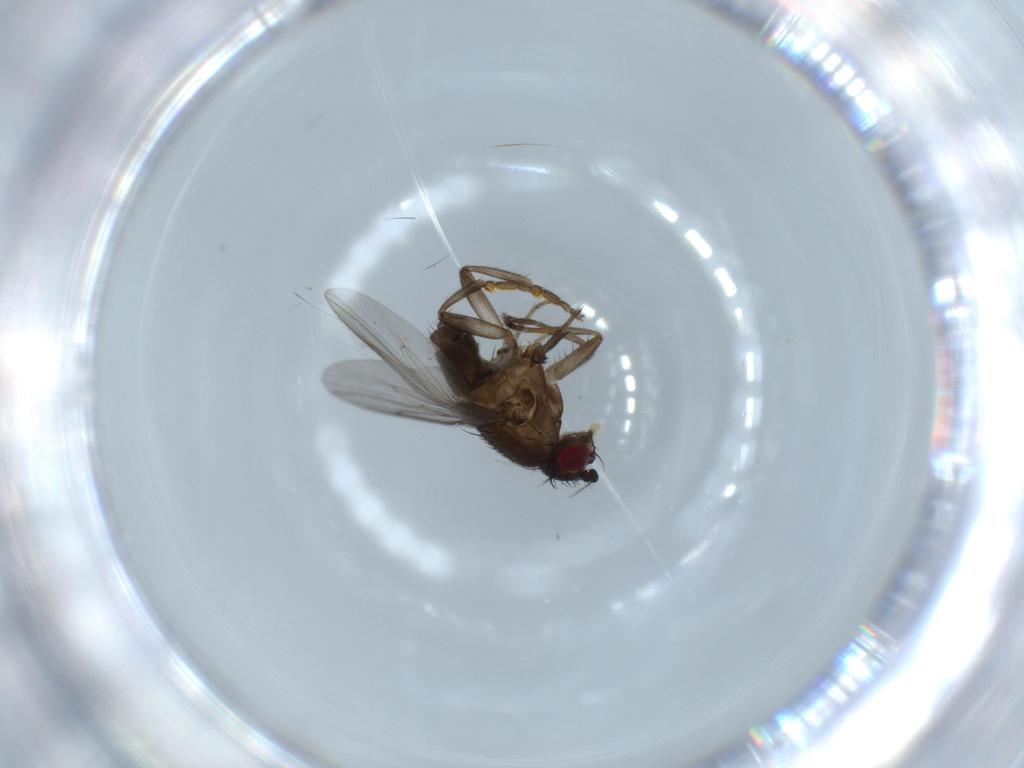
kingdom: Animalia
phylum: Arthropoda
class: Insecta
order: Diptera
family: Sphaeroceridae
